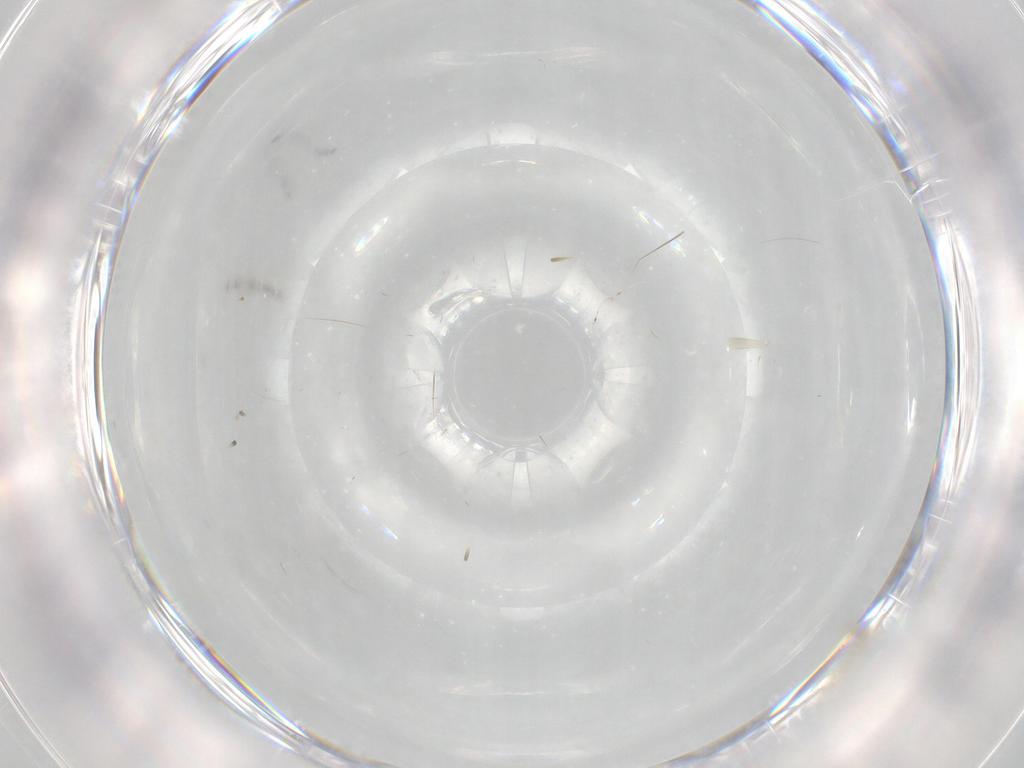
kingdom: Animalia
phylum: Arthropoda
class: Insecta
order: Diptera
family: Cecidomyiidae
